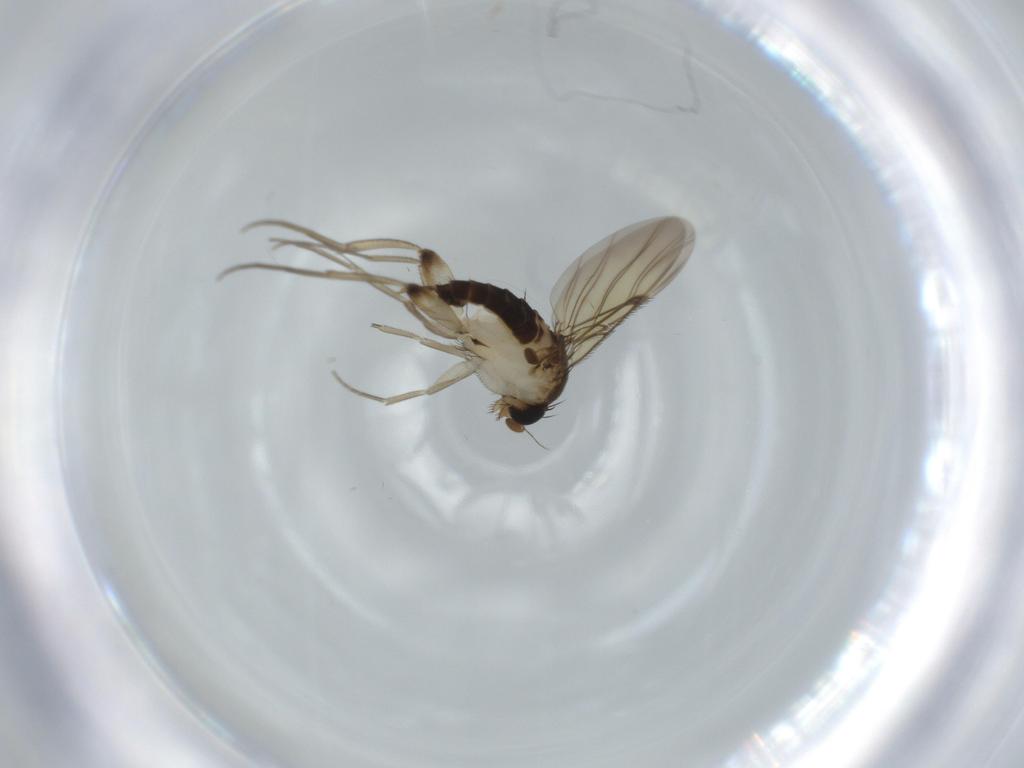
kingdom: Animalia
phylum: Arthropoda
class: Insecta
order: Diptera
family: Phoridae
